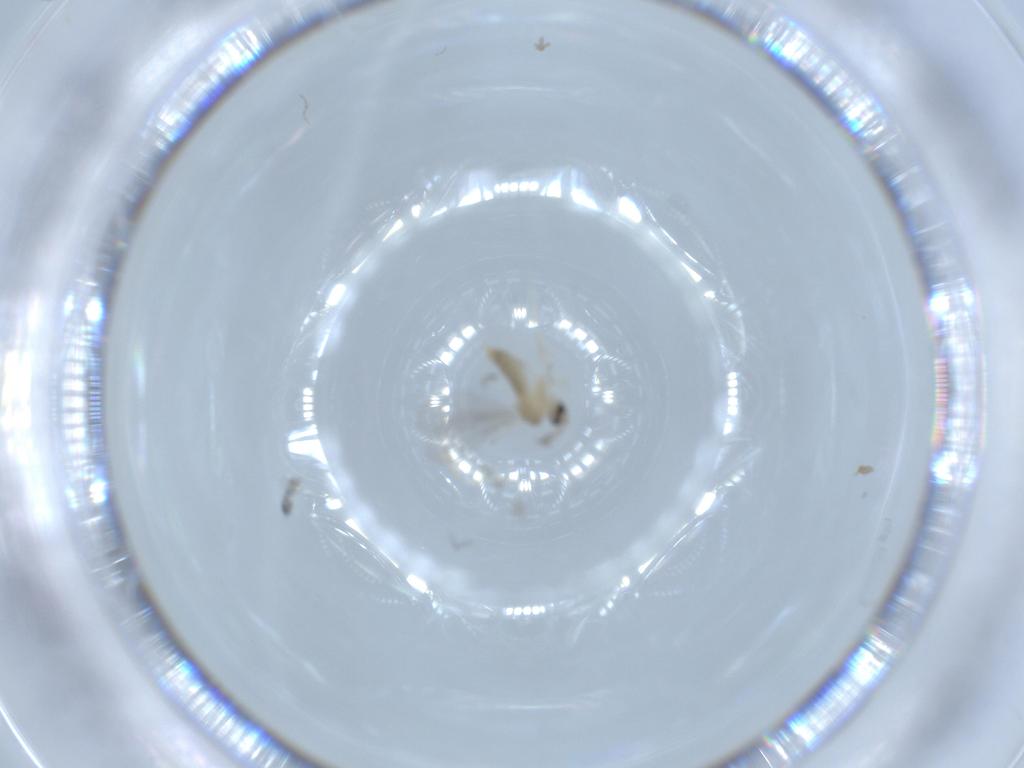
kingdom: Animalia
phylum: Arthropoda
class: Insecta
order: Diptera
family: Cecidomyiidae
